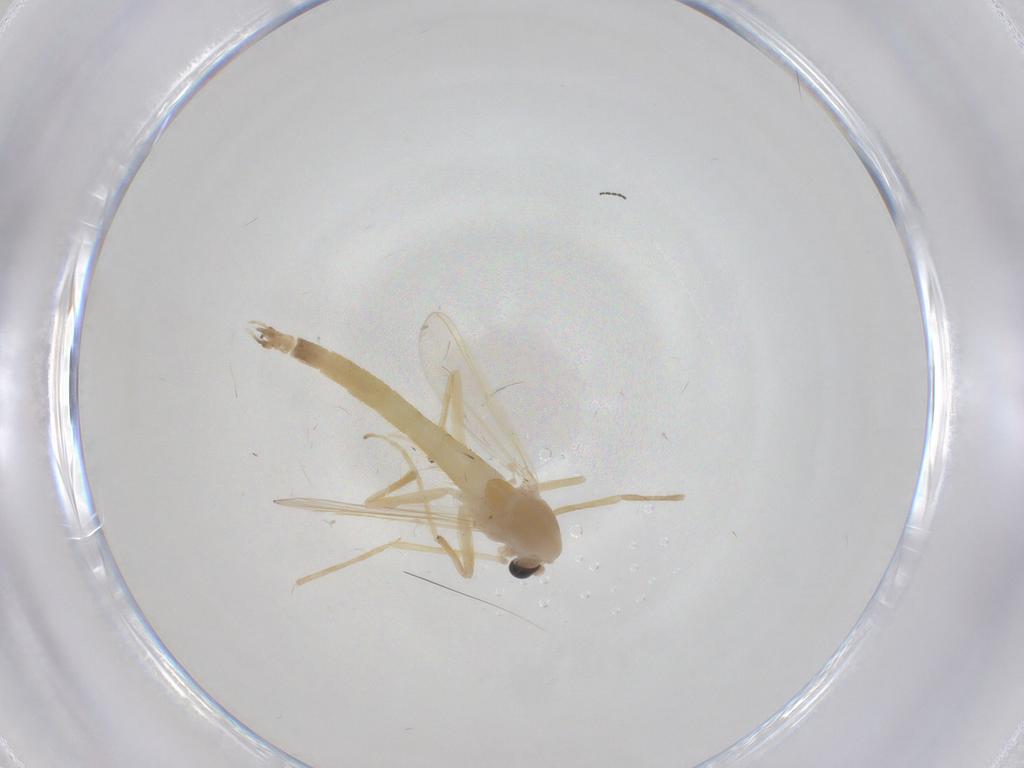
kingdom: Animalia
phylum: Arthropoda
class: Insecta
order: Diptera
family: Chironomidae
